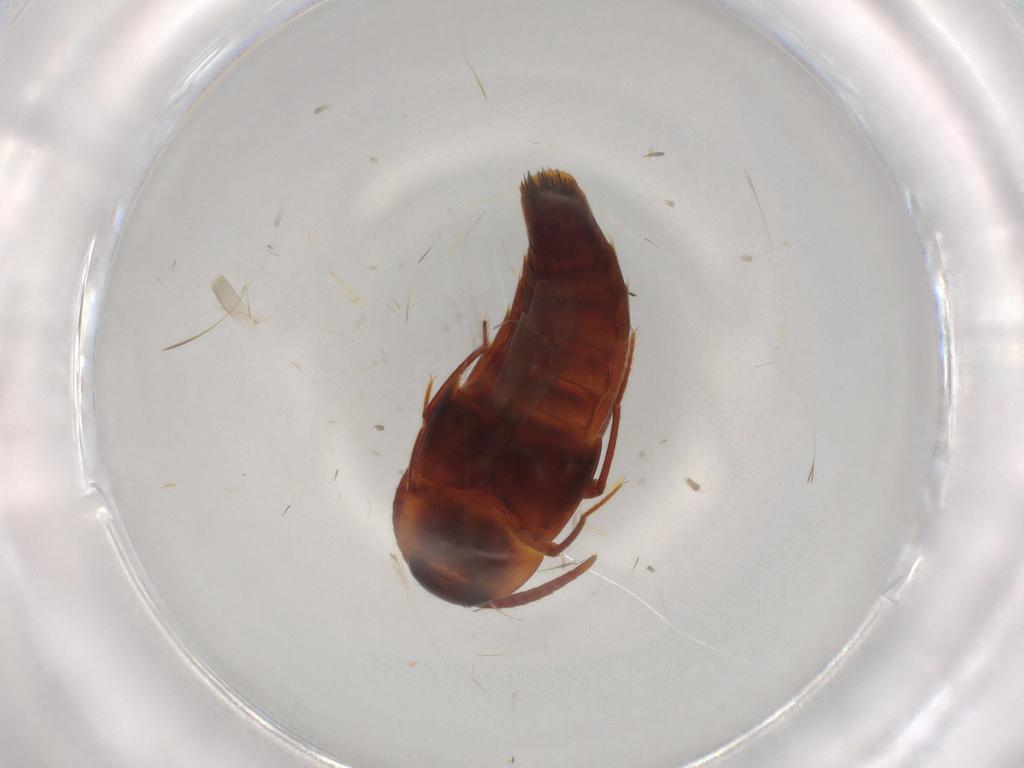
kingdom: Animalia
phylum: Arthropoda
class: Insecta
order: Coleoptera
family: Staphylinidae
